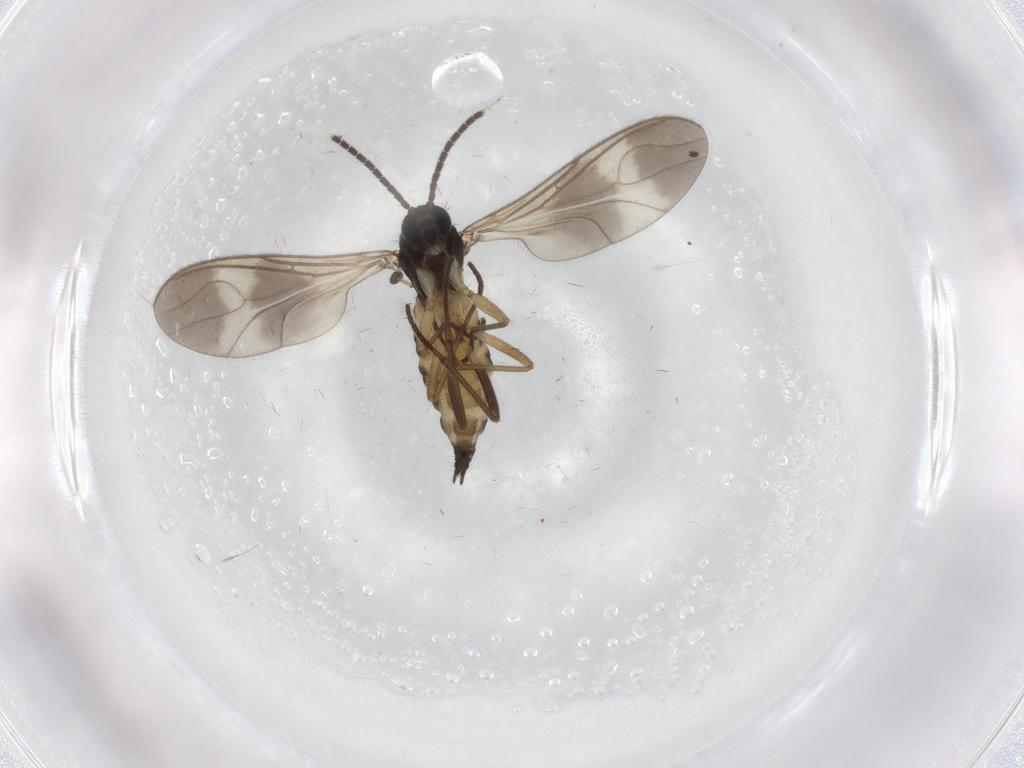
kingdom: Animalia
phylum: Arthropoda
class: Insecta
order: Diptera
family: Sciaridae
